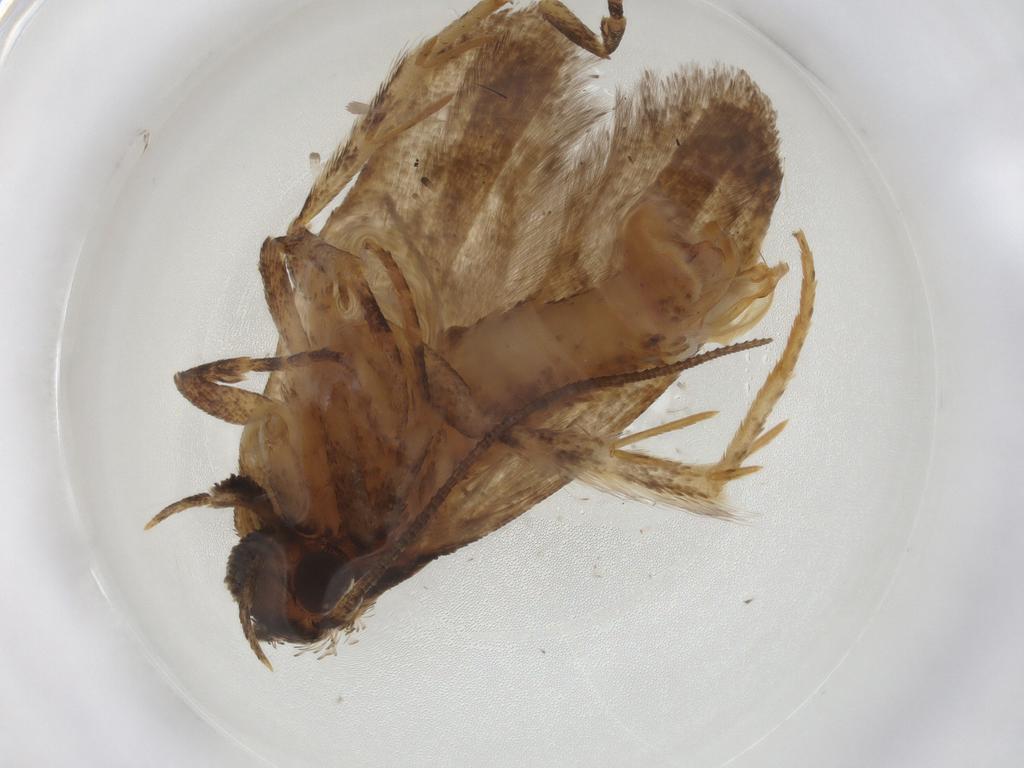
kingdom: Animalia
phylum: Arthropoda
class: Insecta
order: Lepidoptera
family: Gelechiidae
